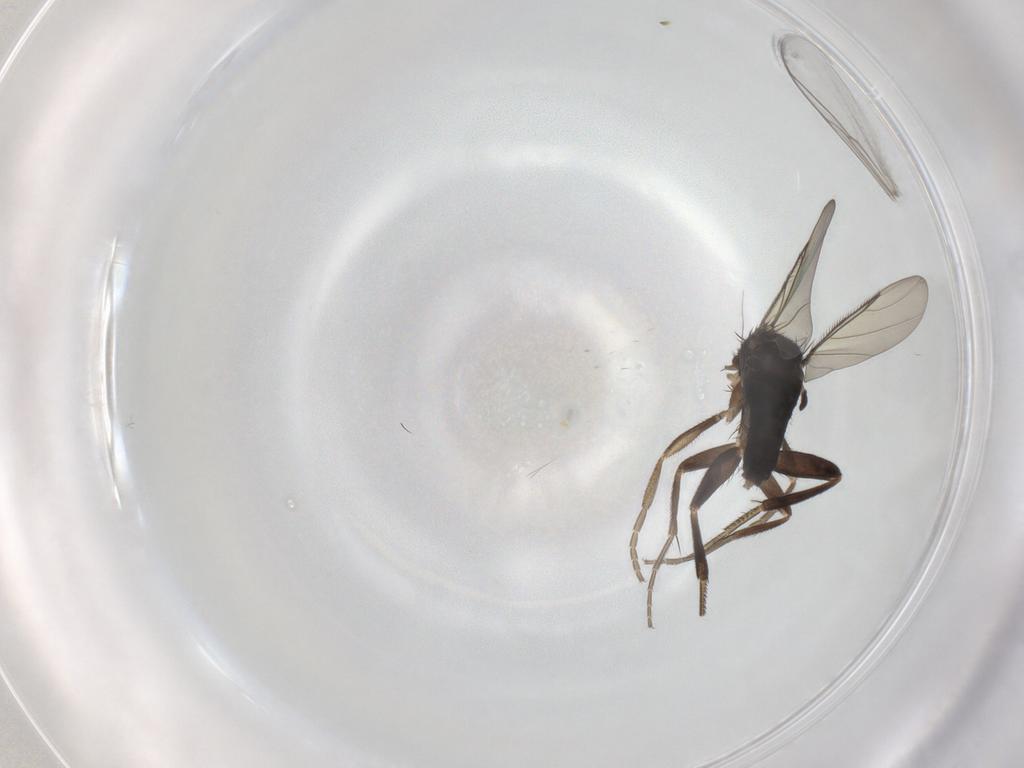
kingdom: Animalia
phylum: Arthropoda
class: Insecta
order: Diptera
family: Phoridae
